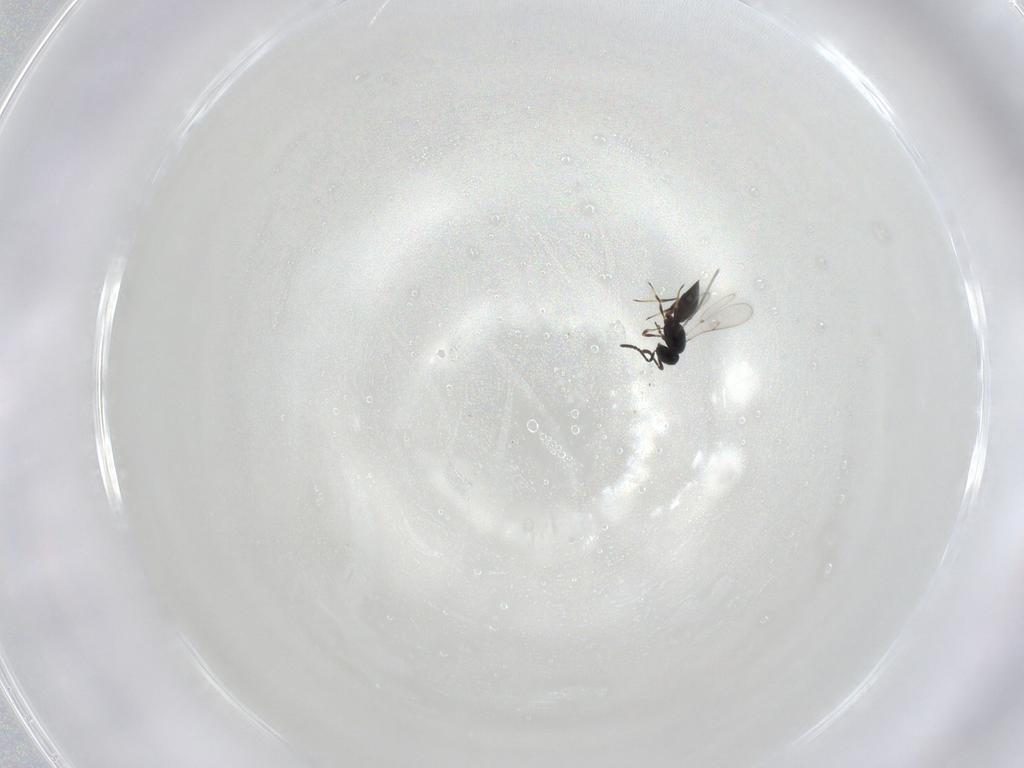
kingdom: Animalia
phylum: Arthropoda
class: Insecta
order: Hymenoptera
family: Scelionidae
